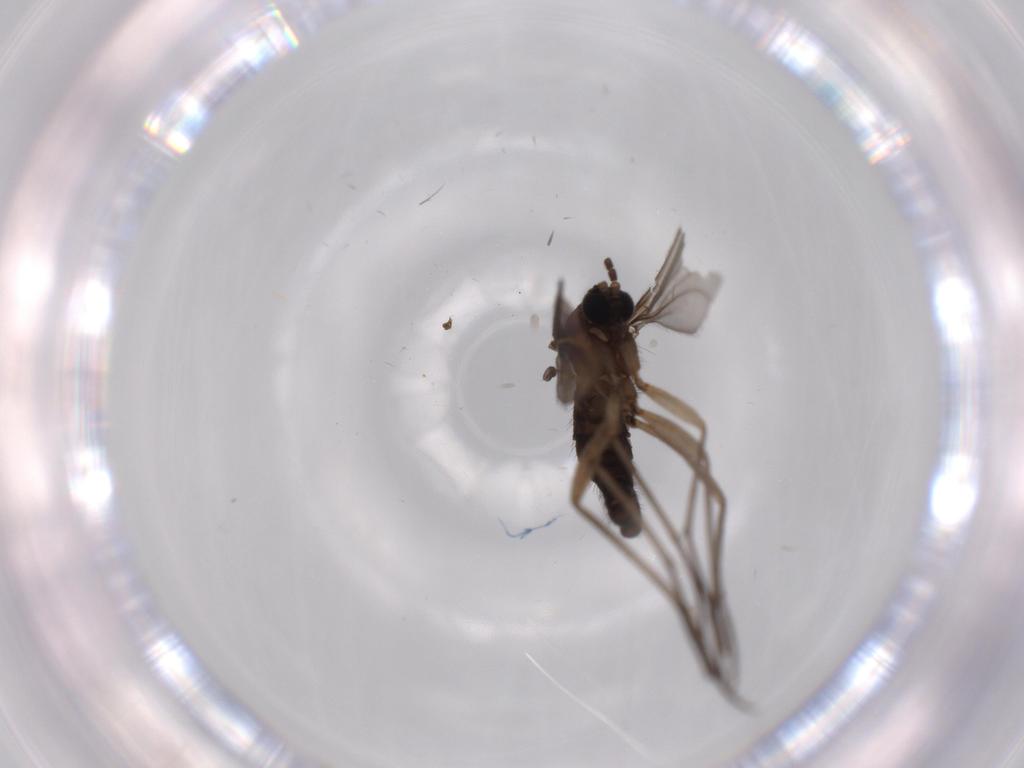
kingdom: Animalia
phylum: Arthropoda
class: Insecta
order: Diptera
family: Sciaridae
